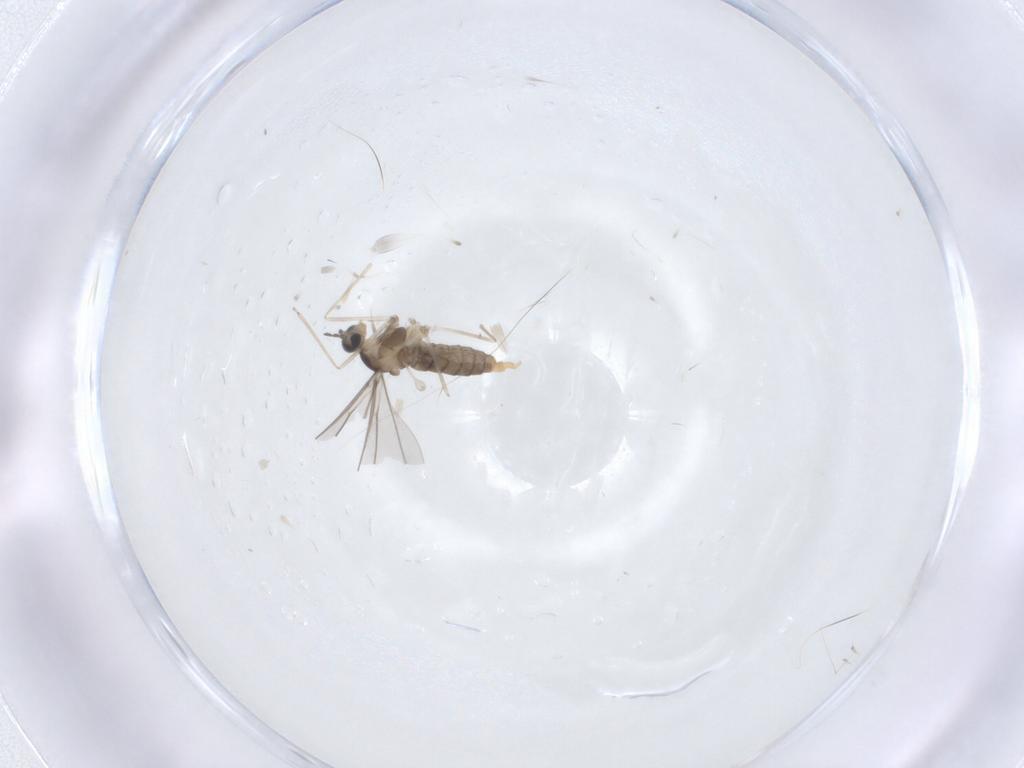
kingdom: Animalia
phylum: Arthropoda
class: Insecta
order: Diptera
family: Cecidomyiidae
